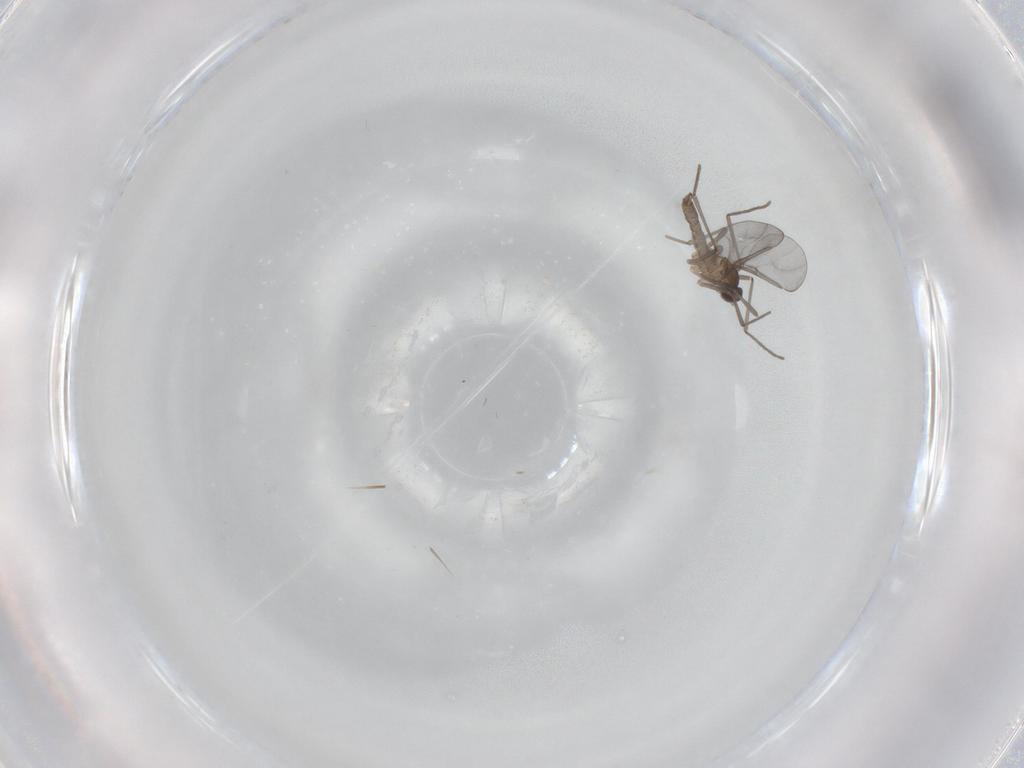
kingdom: Animalia
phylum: Arthropoda
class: Insecta
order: Diptera
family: Cecidomyiidae
